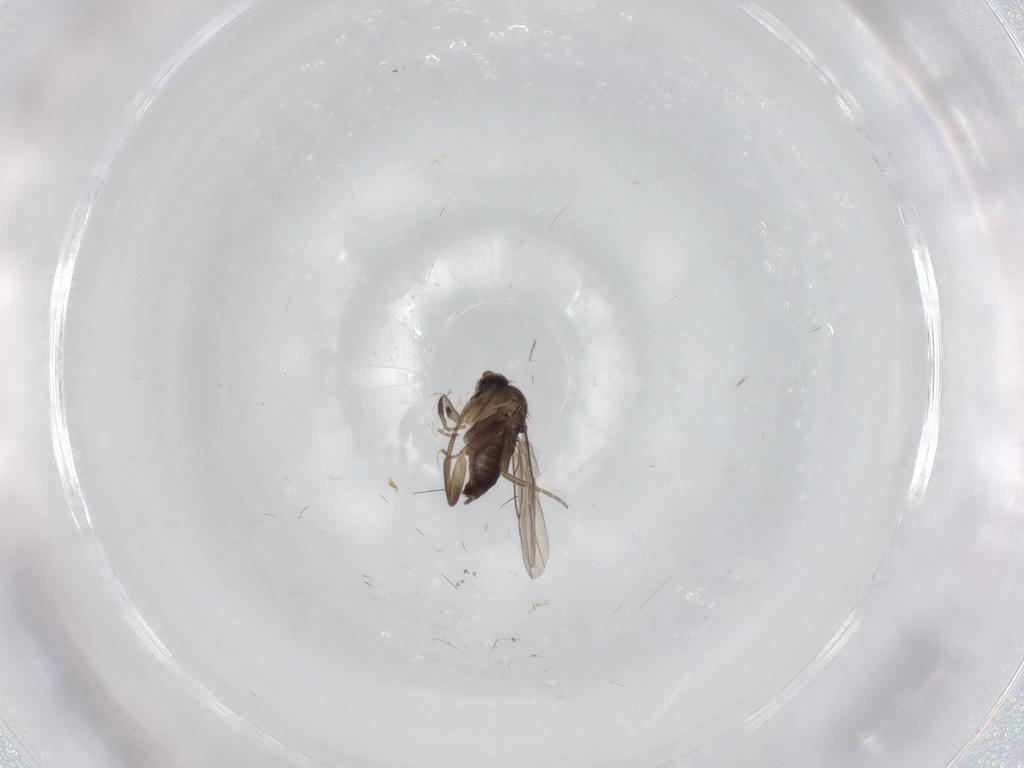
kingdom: Animalia
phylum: Arthropoda
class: Insecta
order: Diptera
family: Phoridae
